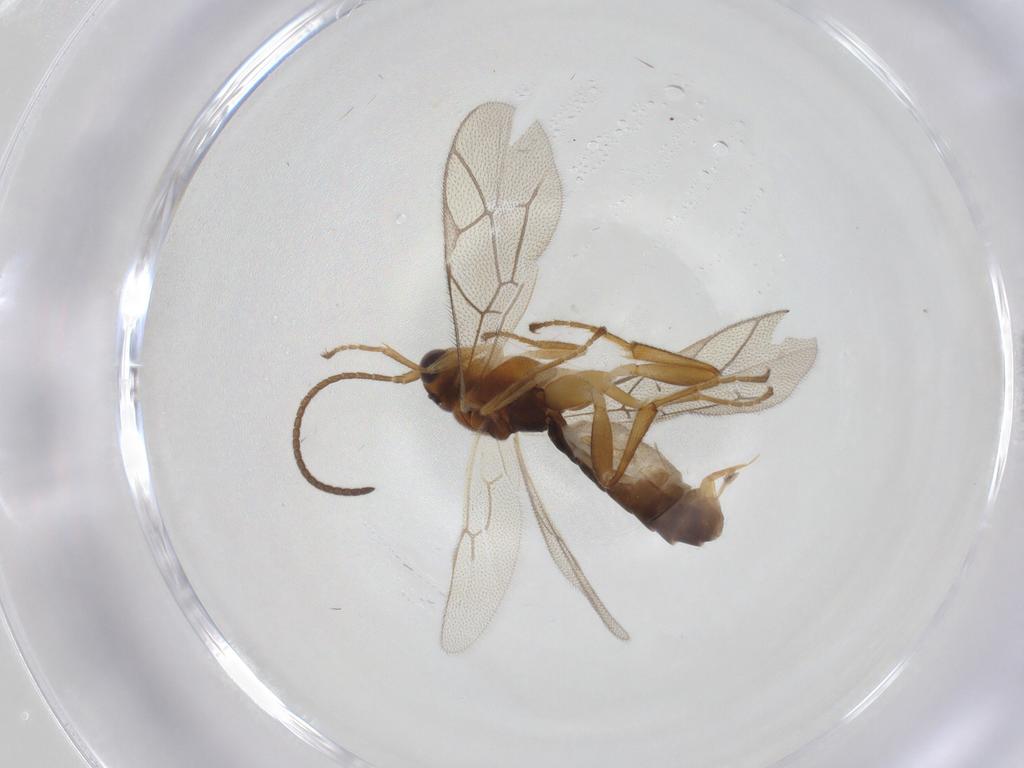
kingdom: Animalia
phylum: Arthropoda
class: Insecta
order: Hymenoptera
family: Ichneumonidae
